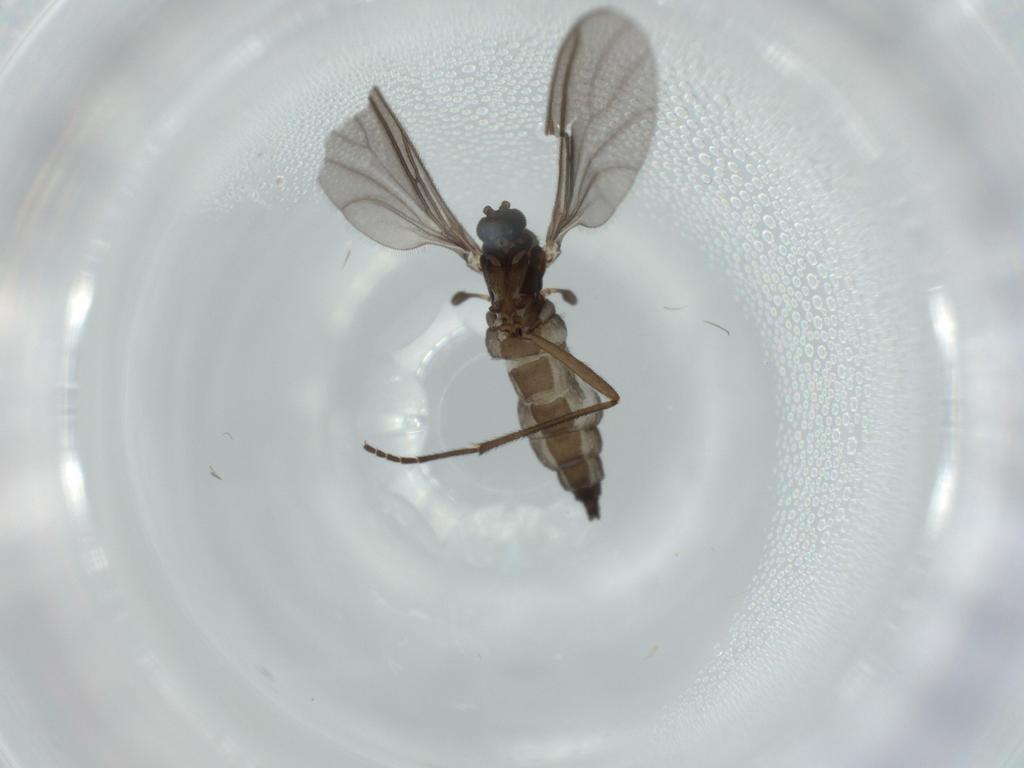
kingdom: Animalia
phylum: Arthropoda
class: Insecta
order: Diptera
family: Sciaridae
